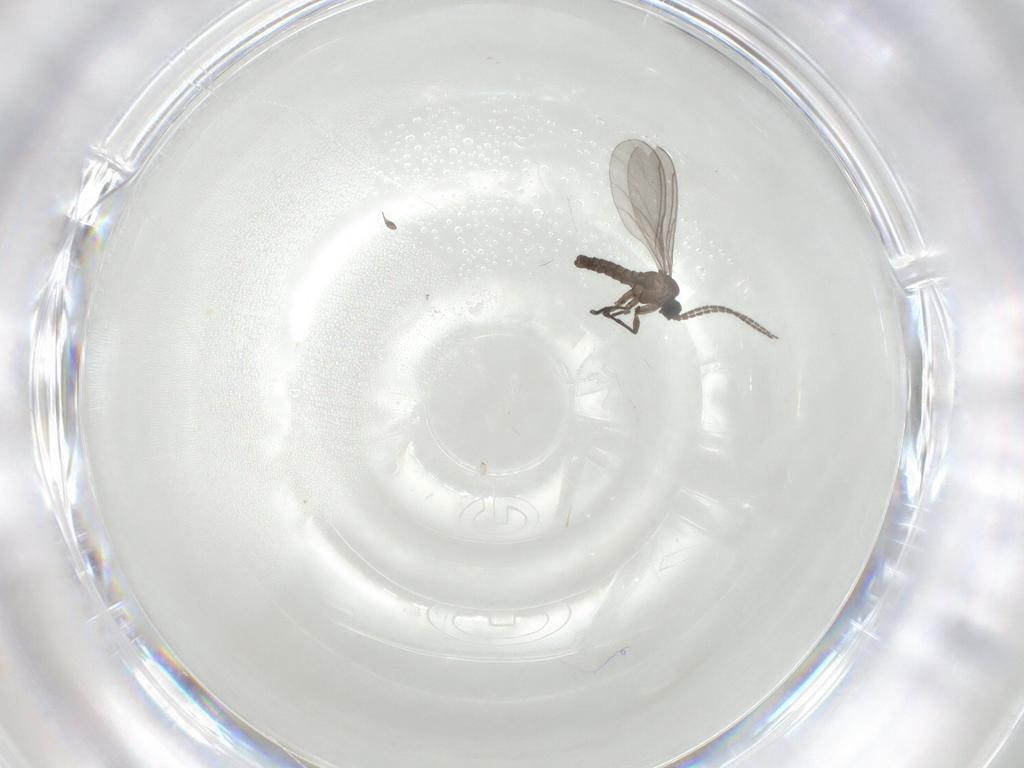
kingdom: Animalia
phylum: Arthropoda
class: Insecta
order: Diptera
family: Sciaridae
